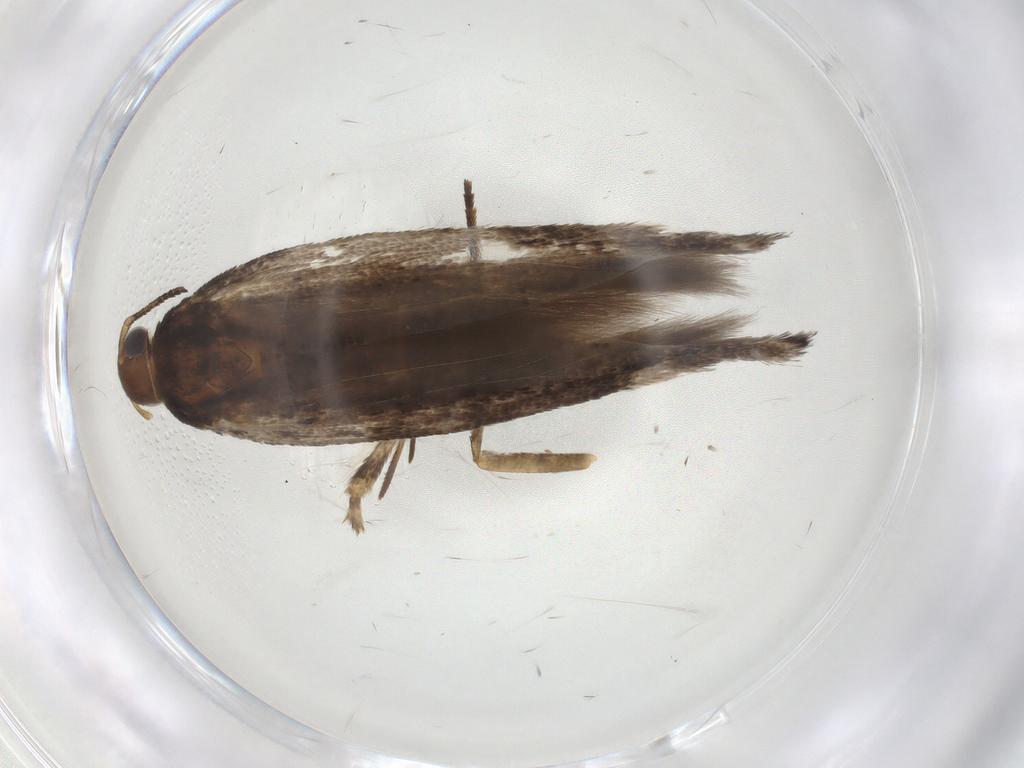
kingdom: Animalia
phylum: Arthropoda
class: Insecta
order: Lepidoptera
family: Gelechiidae
